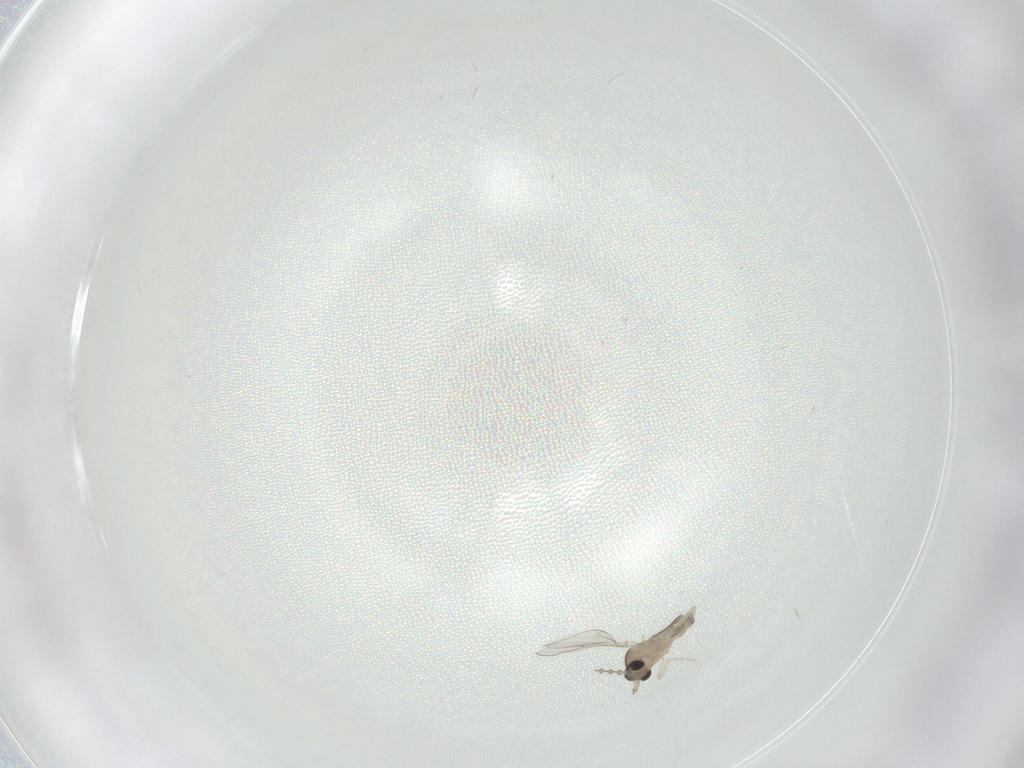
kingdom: Animalia
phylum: Arthropoda
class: Insecta
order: Diptera
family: Cecidomyiidae
